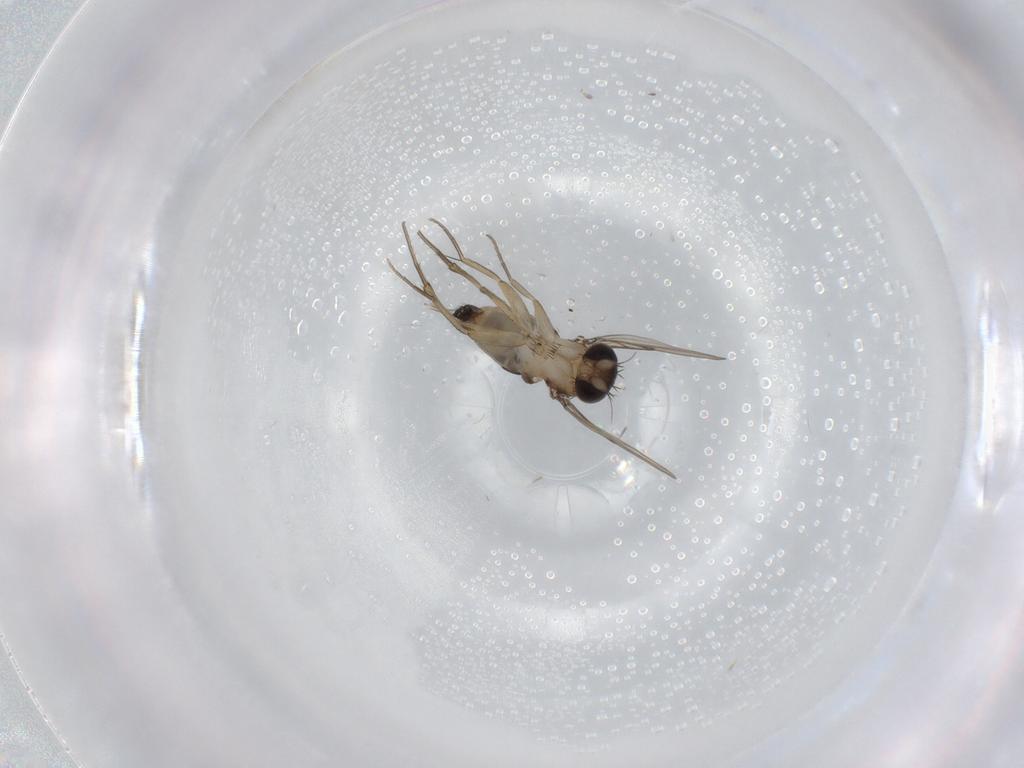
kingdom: Animalia
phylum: Arthropoda
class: Insecta
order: Diptera
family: Phoridae
